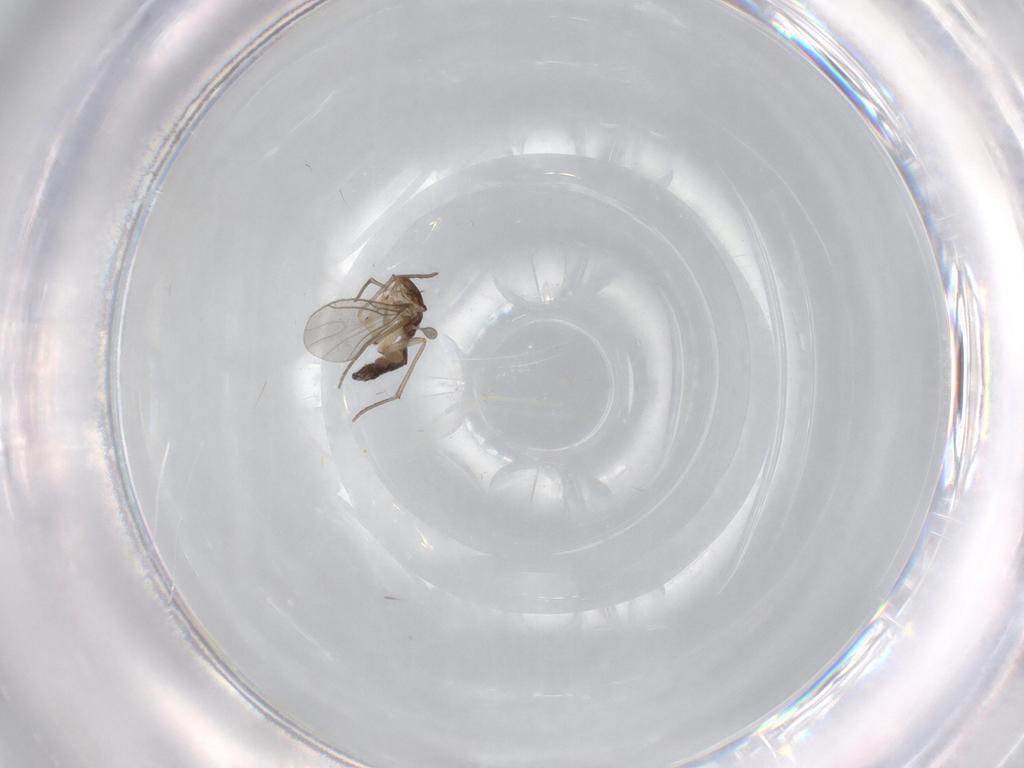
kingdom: Animalia
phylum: Arthropoda
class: Insecta
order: Diptera
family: Sciaridae
